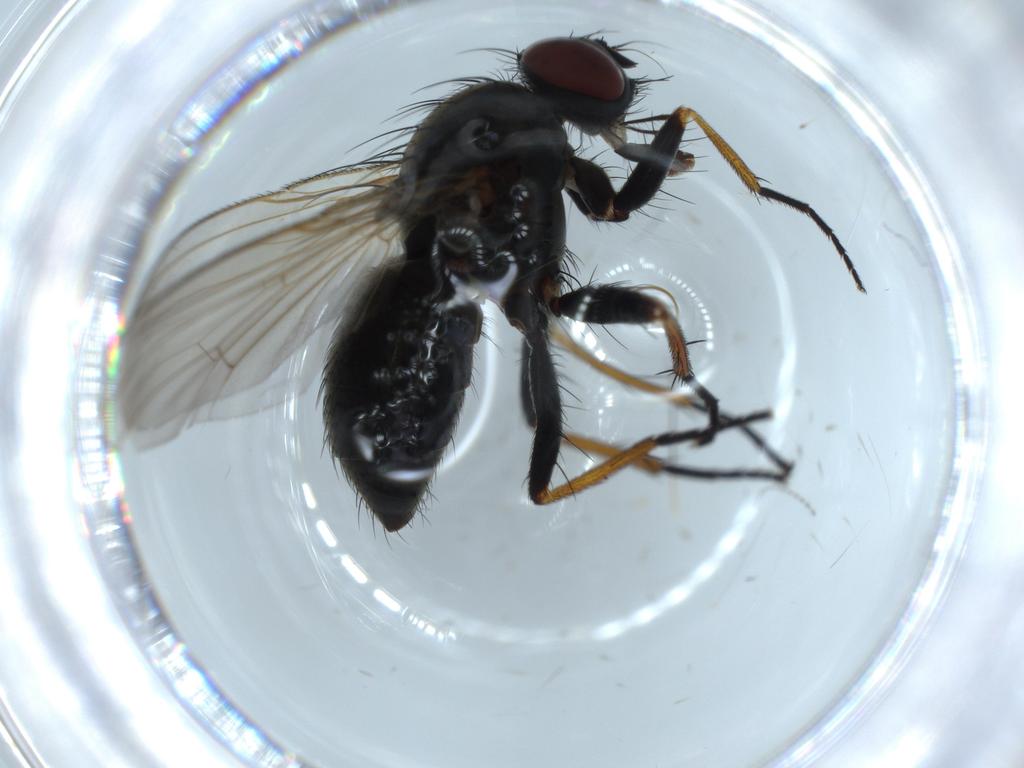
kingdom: Animalia
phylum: Arthropoda
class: Insecta
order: Diptera
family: Muscidae
